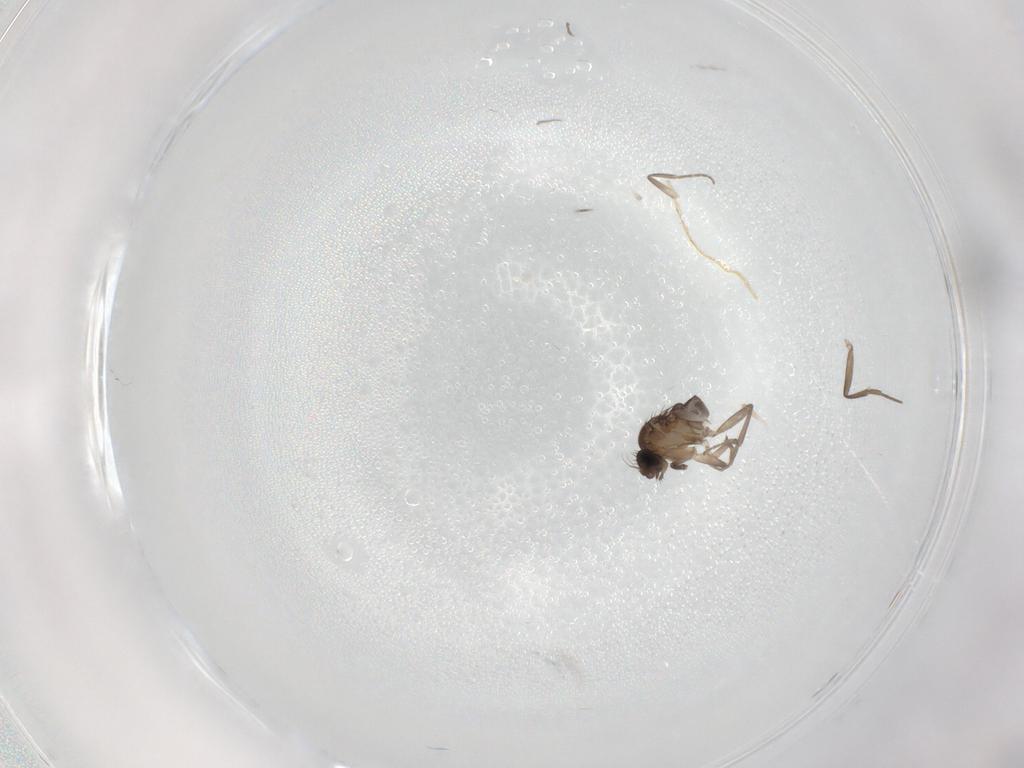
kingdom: Animalia
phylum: Arthropoda
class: Insecta
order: Diptera
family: Phoridae
